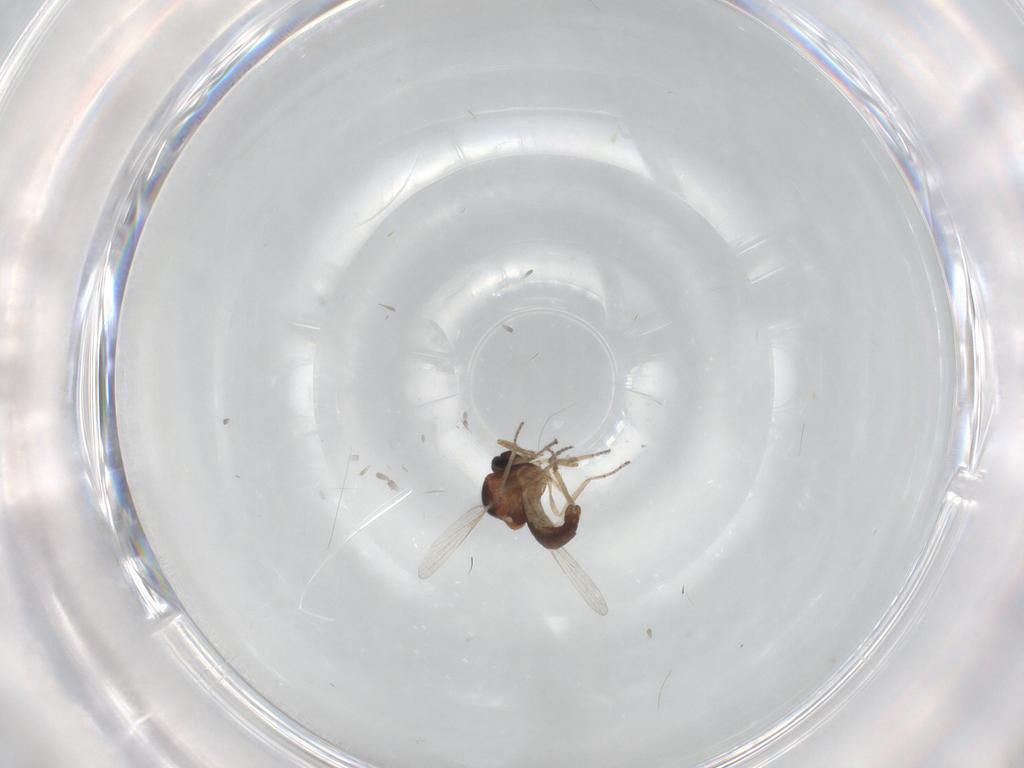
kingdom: Animalia
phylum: Arthropoda
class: Insecta
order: Diptera
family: Ceratopogonidae
